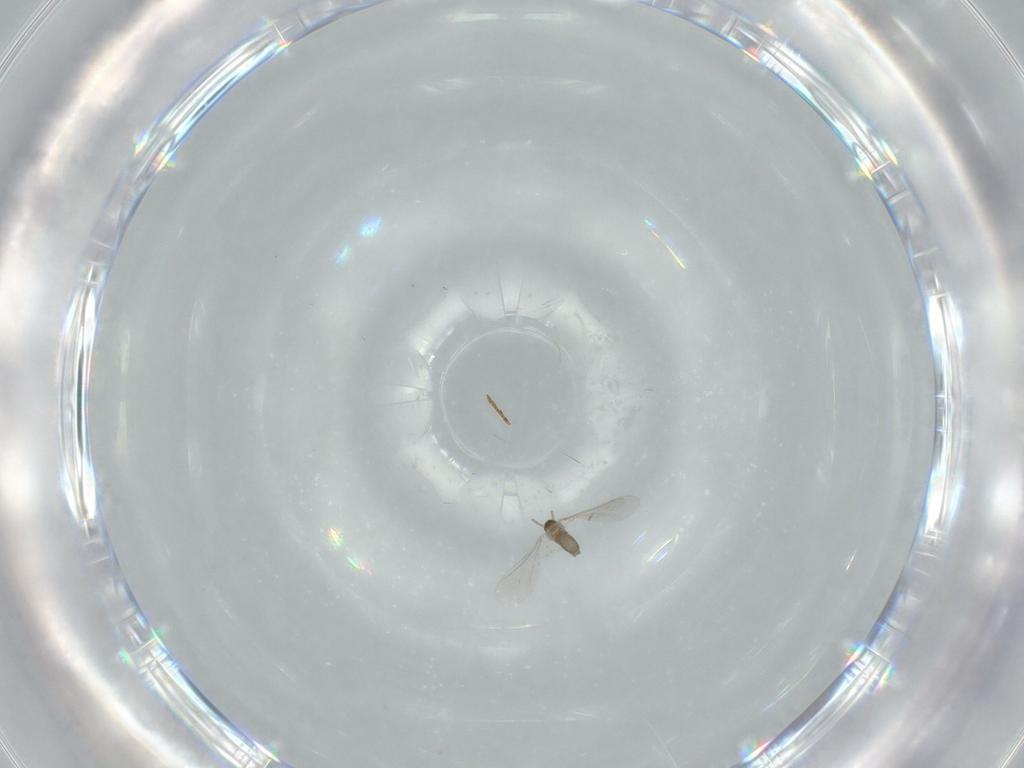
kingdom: Animalia
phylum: Arthropoda
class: Insecta
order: Diptera
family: Cecidomyiidae
